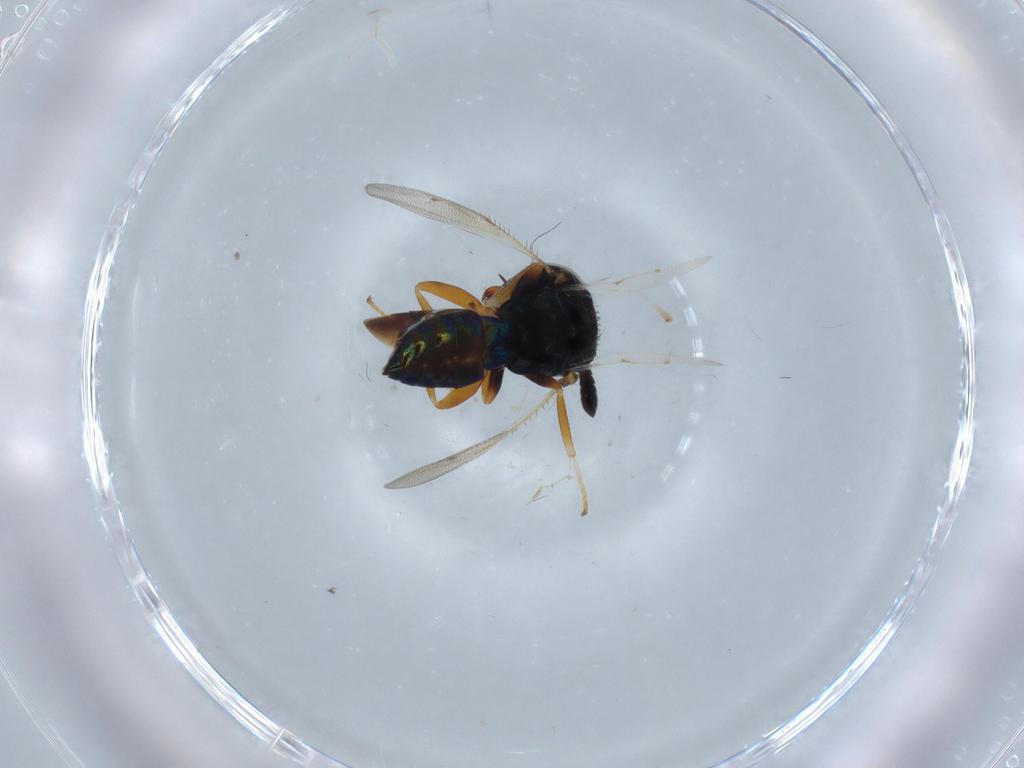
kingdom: Animalia
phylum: Arthropoda
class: Insecta
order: Hymenoptera
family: Agaonidae
